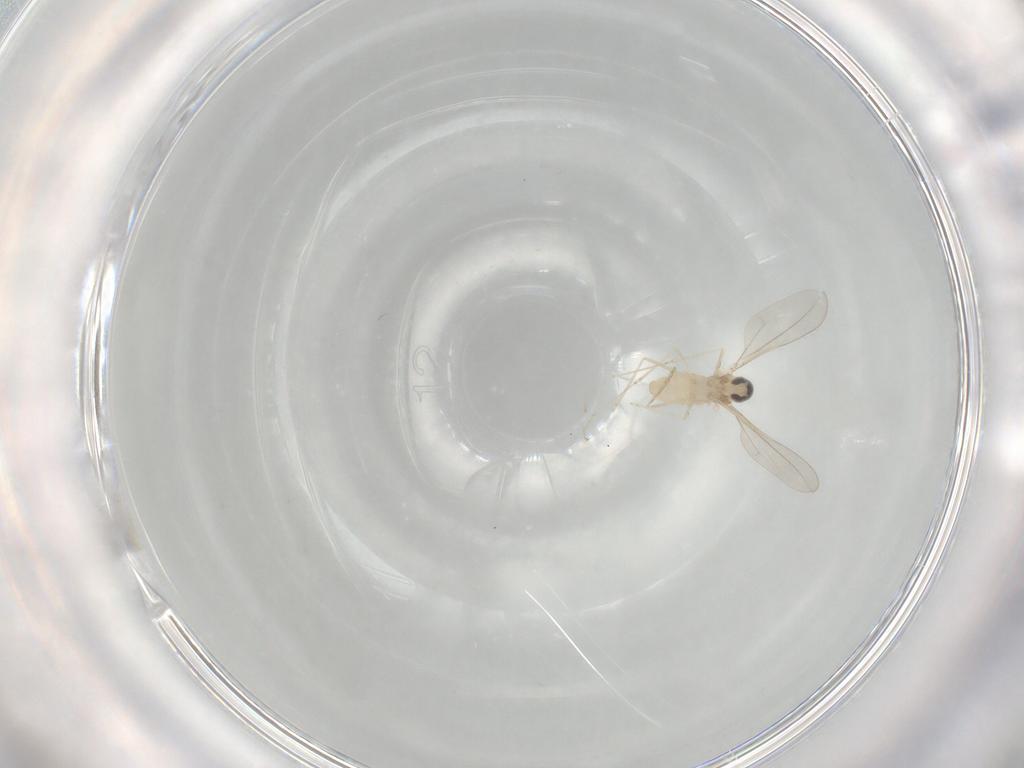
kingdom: Animalia
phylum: Arthropoda
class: Insecta
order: Diptera
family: Cecidomyiidae
